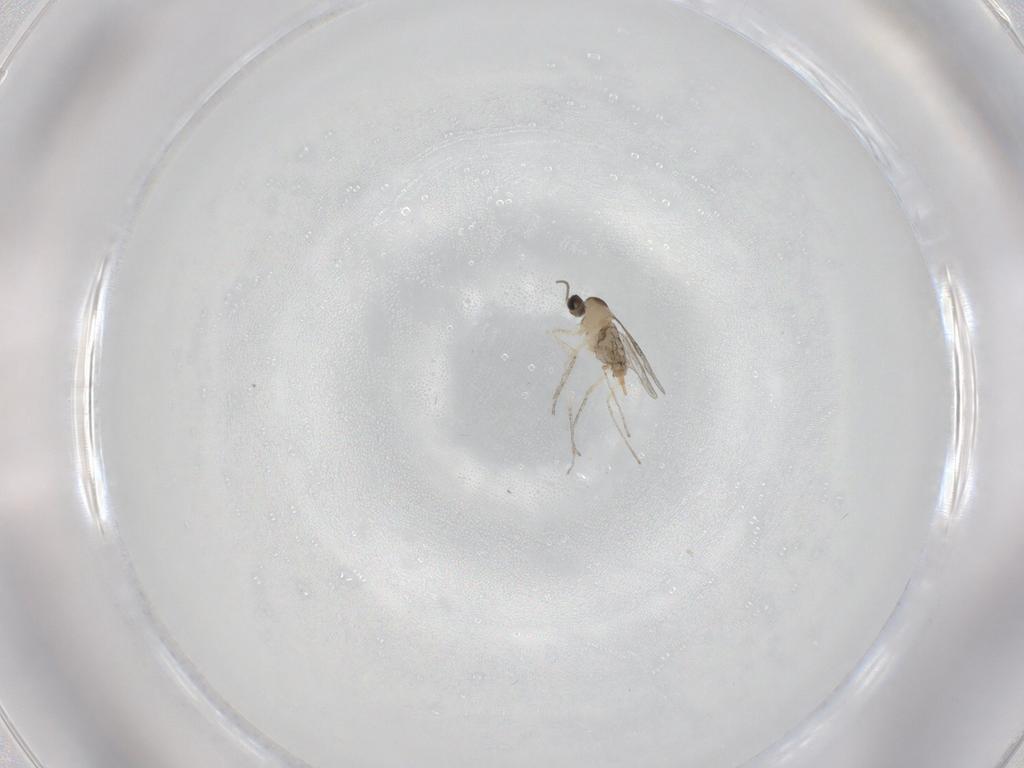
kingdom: Animalia
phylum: Arthropoda
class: Insecta
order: Diptera
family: Cecidomyiidae
